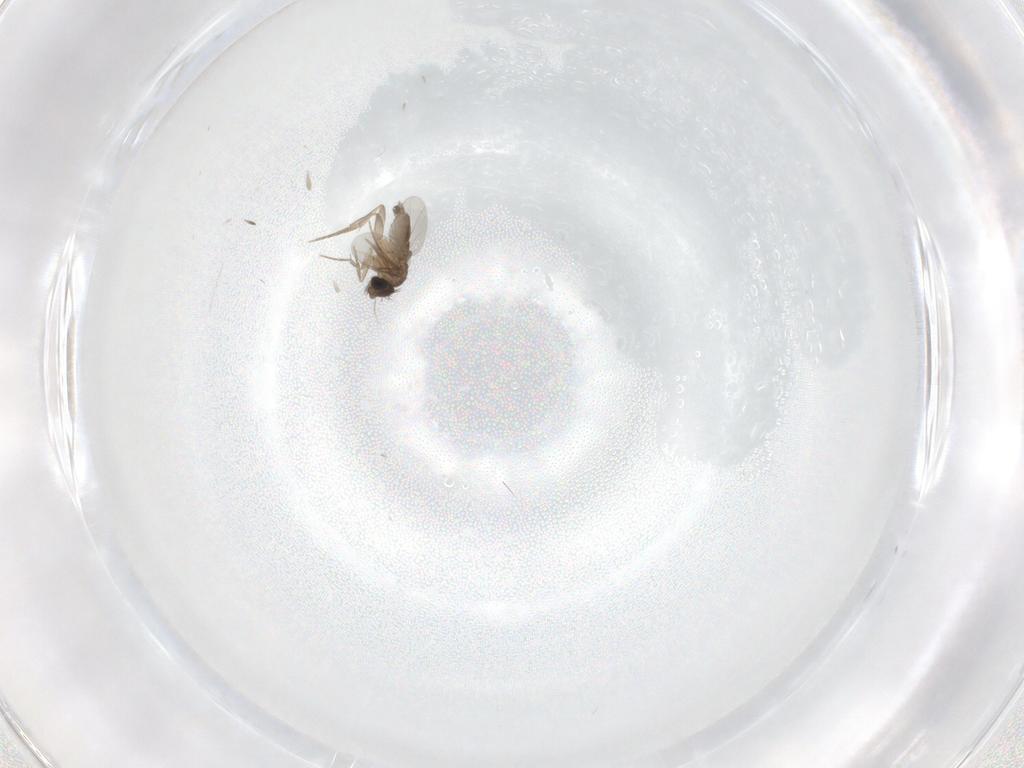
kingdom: Animalia
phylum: Arthropoda
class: Insecta
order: Diptera
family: Phoridae
